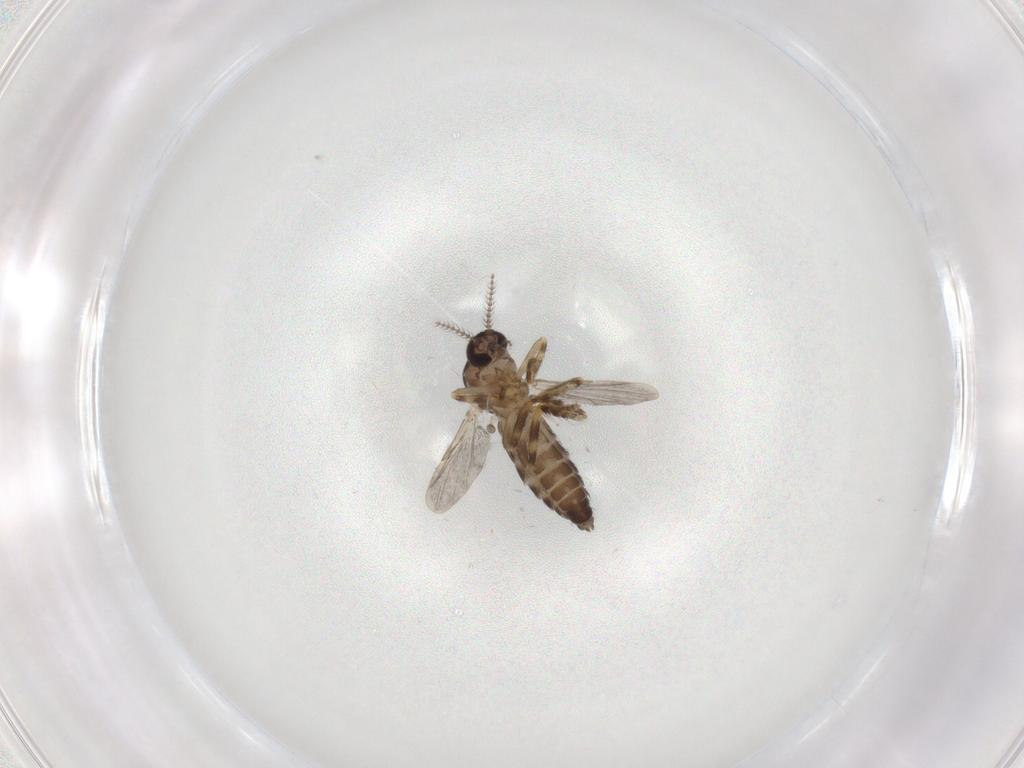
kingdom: Animalia
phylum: Arthropoda
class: Insecta
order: Diptera
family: Ceratopogonidae
